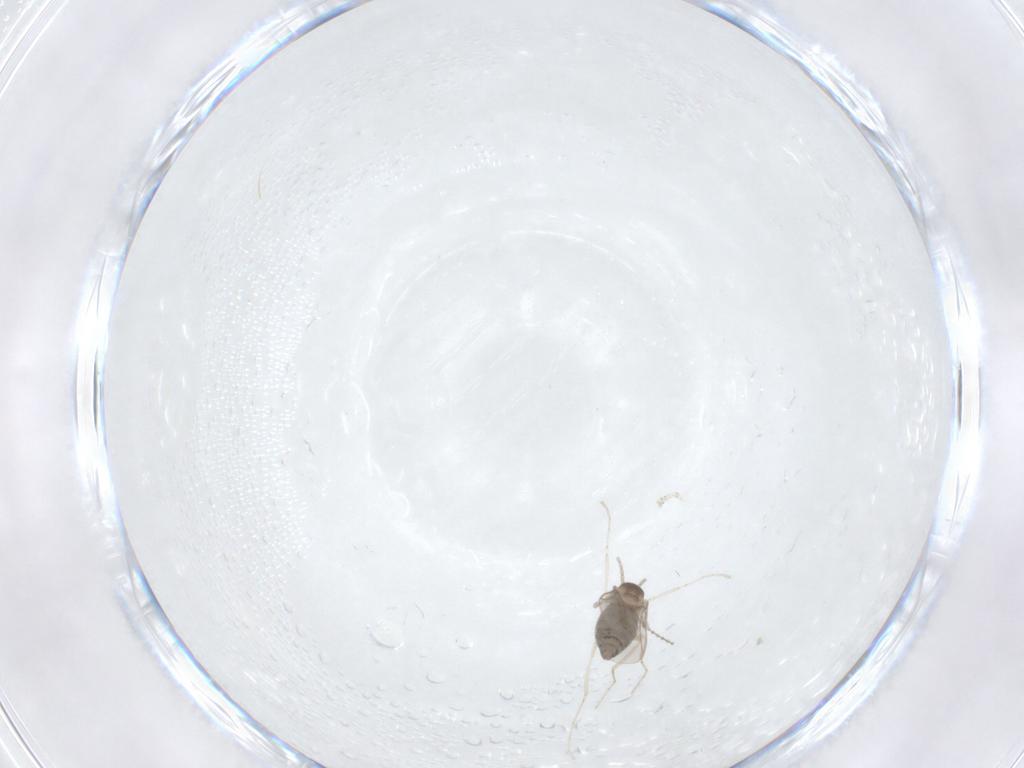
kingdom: Animalia
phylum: Arthropoda
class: Insecta
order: Diptera
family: Cecidomyiidae
